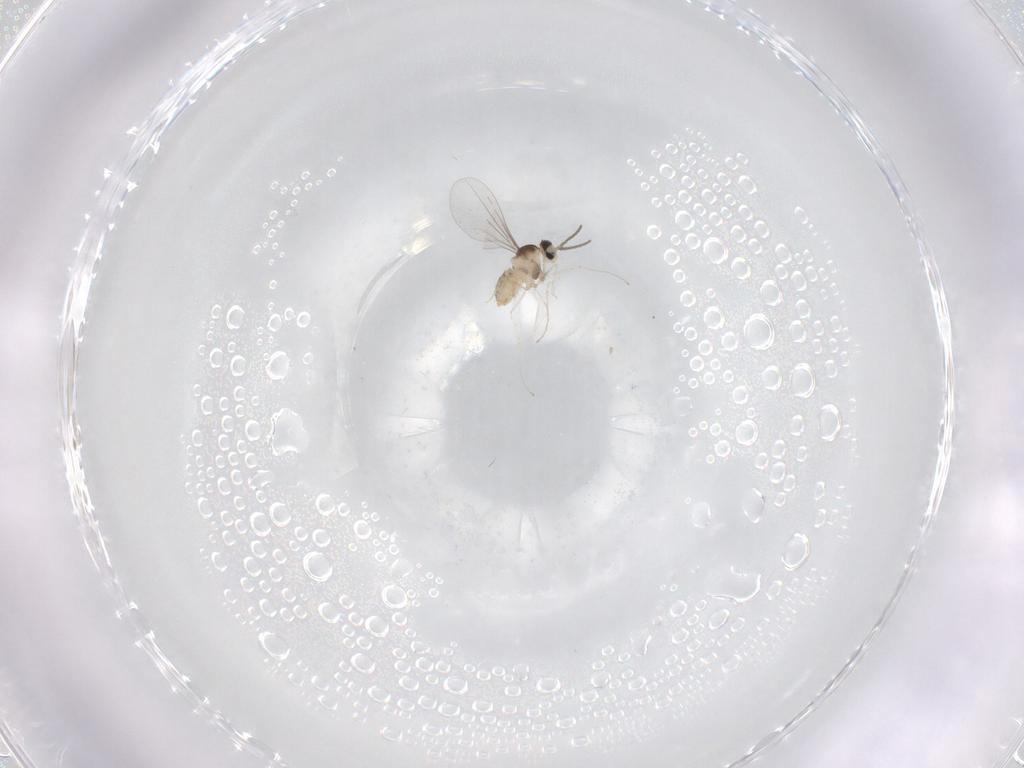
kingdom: Animalia
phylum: Arthropoda
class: Insecta
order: Diptera
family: Cecidomyiidae
